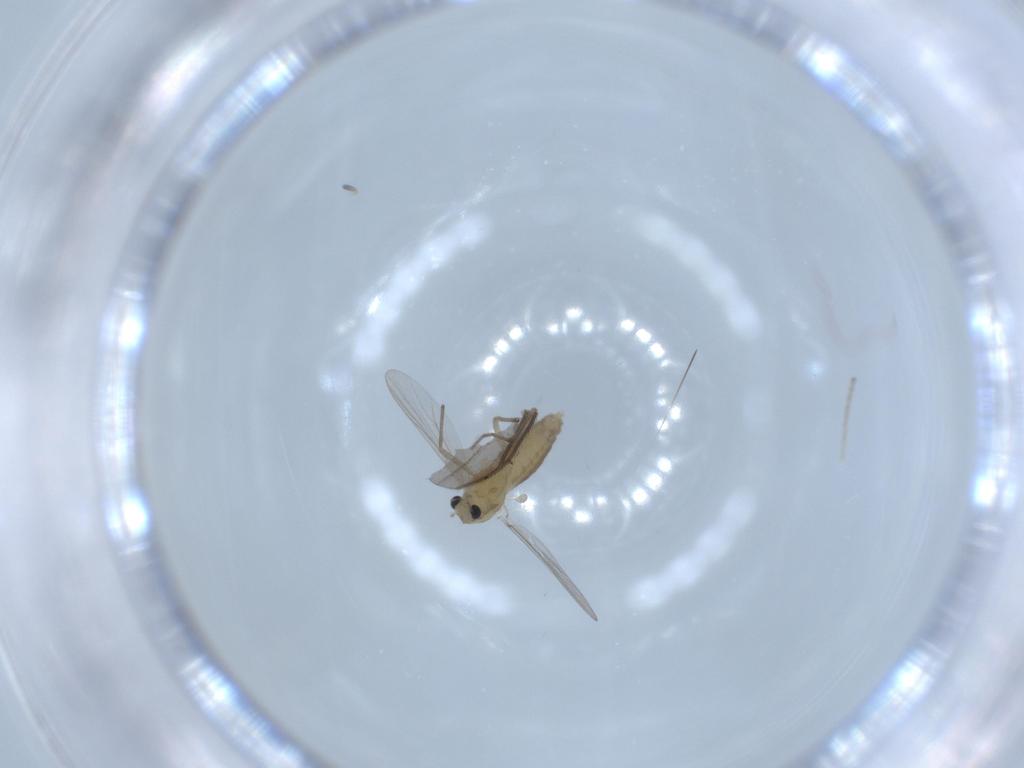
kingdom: Animalia
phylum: Arthropoda
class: Insecta
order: Diptera
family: Chironomidae
